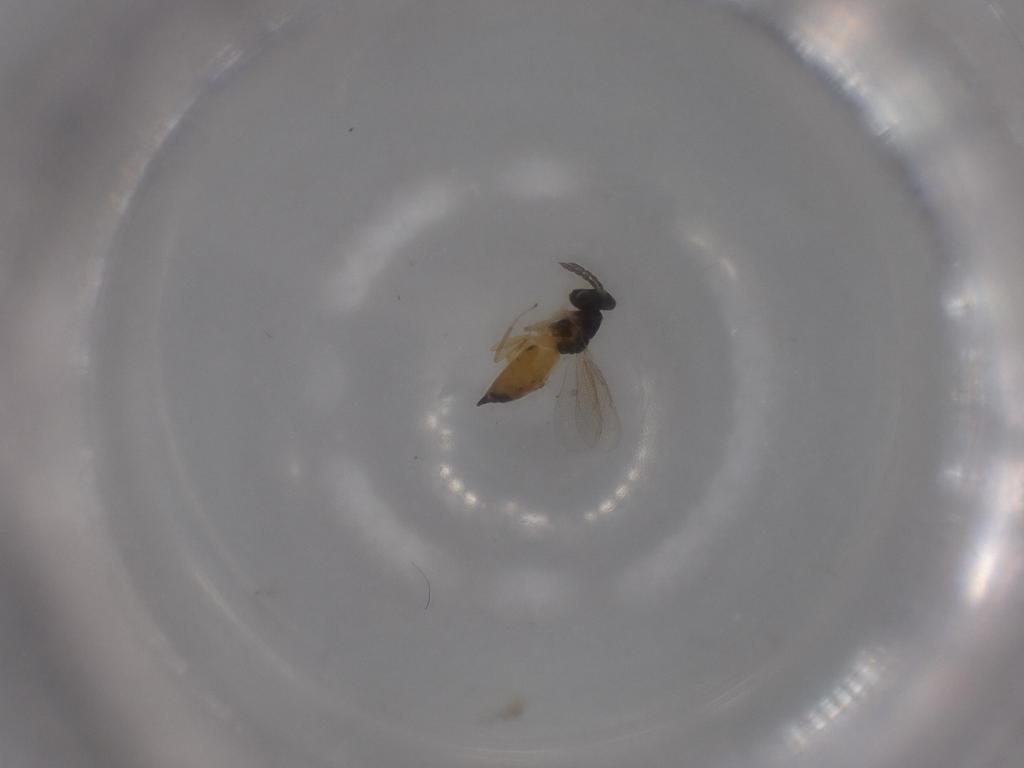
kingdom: Animalia
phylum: Arthropoda
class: Insecta
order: Hymenoptera
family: Eulophidae
